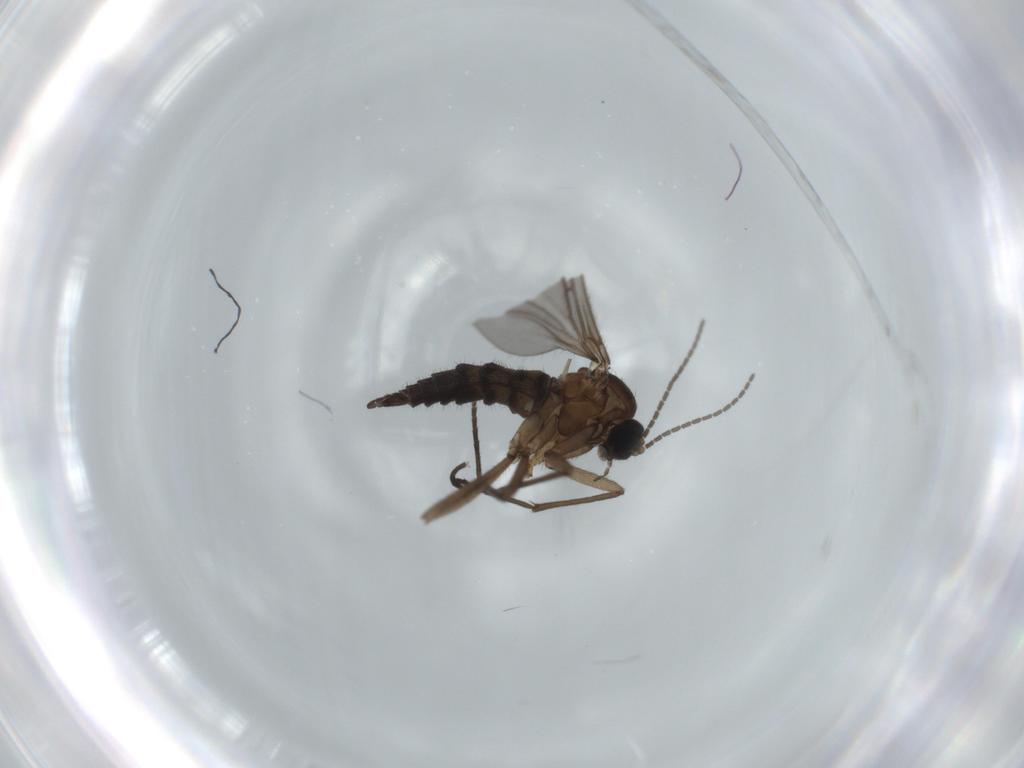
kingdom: Animalia
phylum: Arthropoda
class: Insecta
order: Diptera
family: Sciaridae
